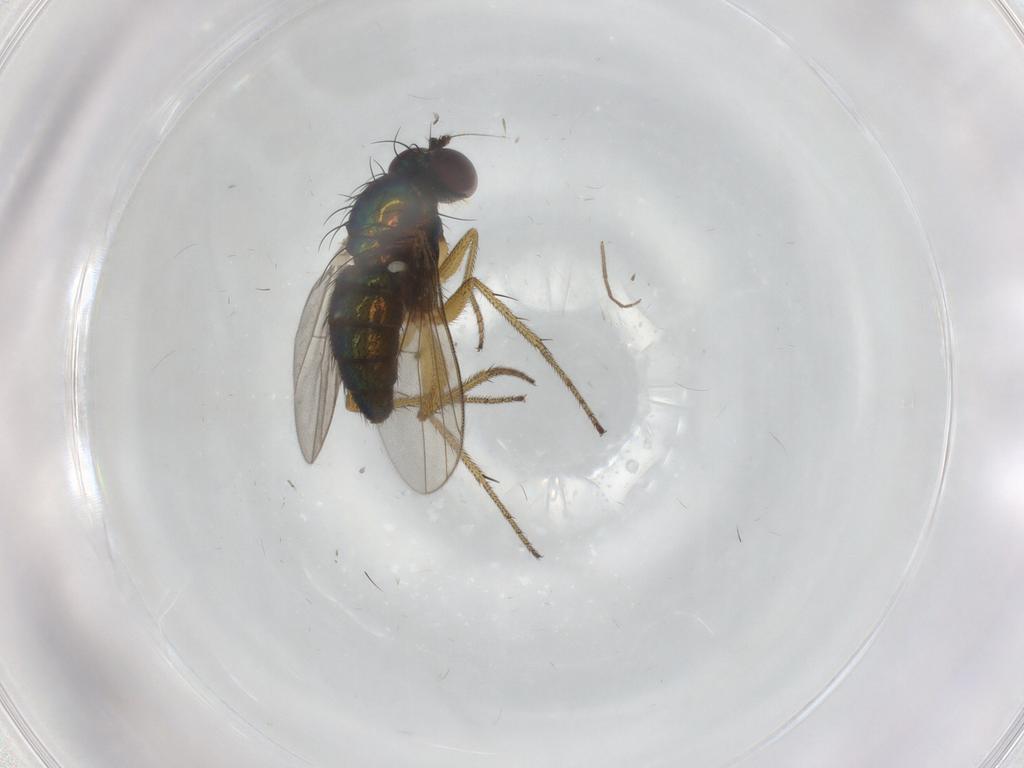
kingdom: Animalia
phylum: Arthropoda
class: Insecta
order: Diptera
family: Chironomidae
